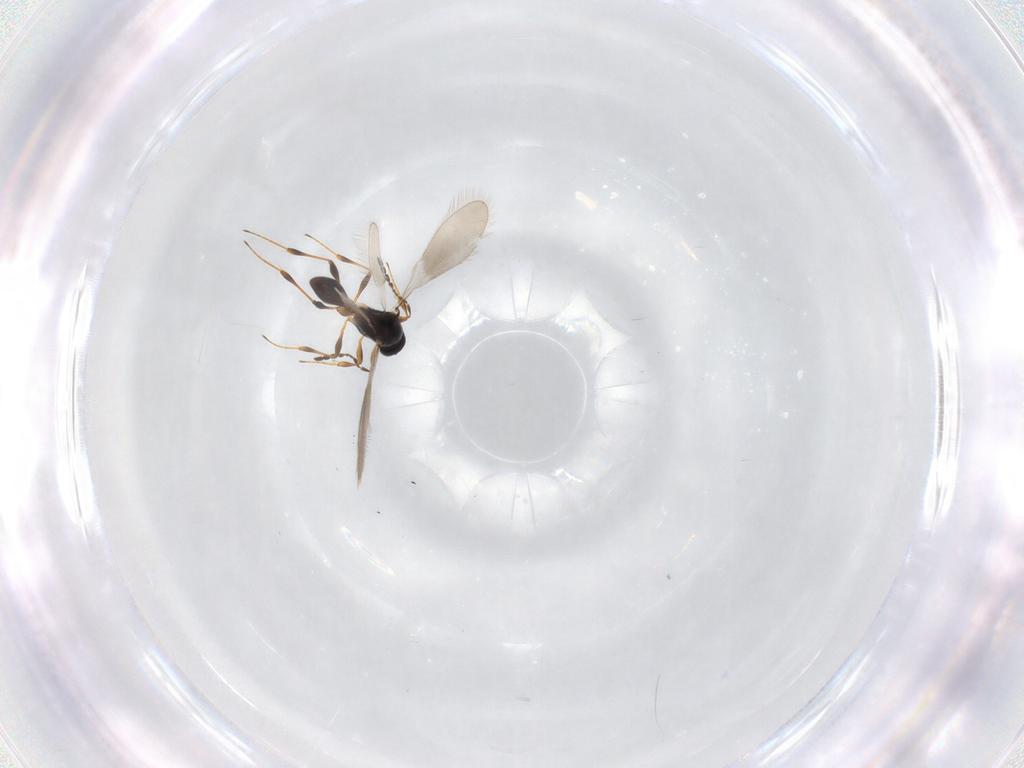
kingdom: Animalia
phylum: Arthropoda
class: Insecta
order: Hymenoptera
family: Platygastridae
